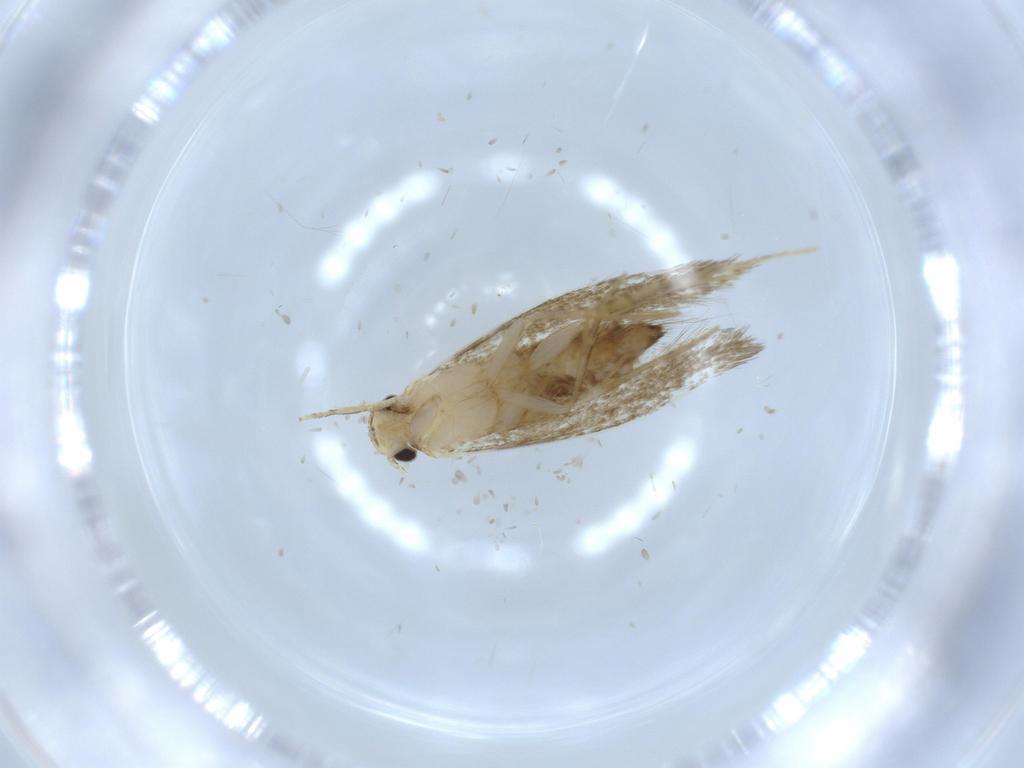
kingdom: Animalia
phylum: Arthropoda
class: Insecta
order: Lepidoptera
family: Tineidae
